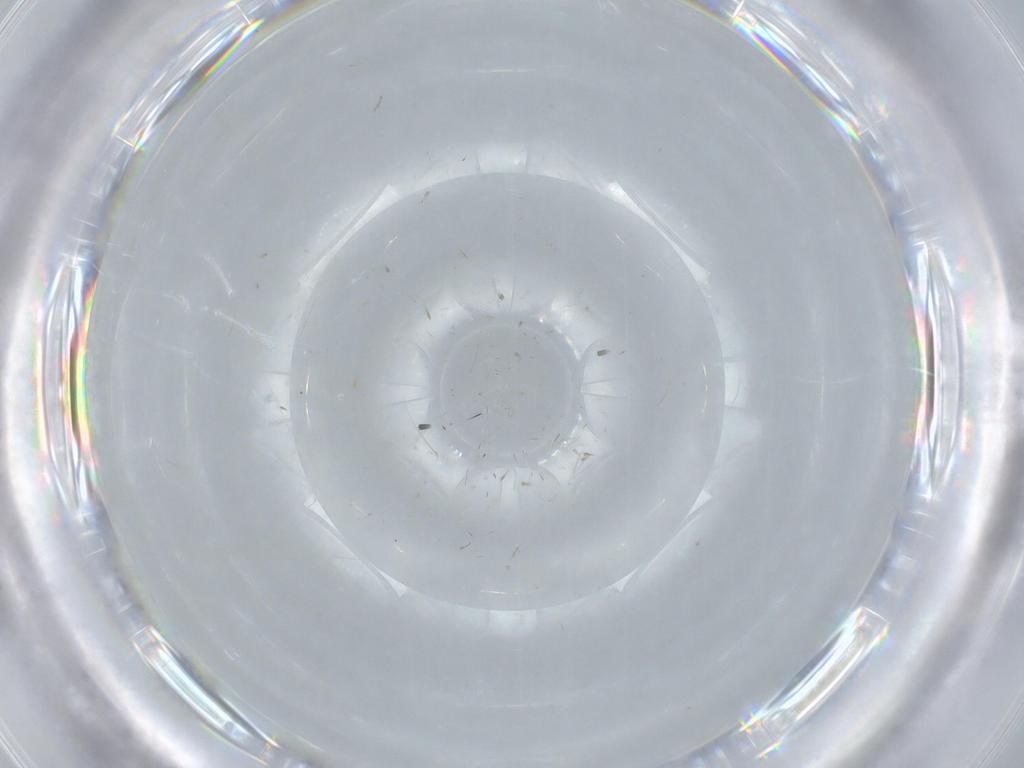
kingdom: Animalia
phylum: Arthropoda
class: Insecta
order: Diptera
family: Cecidomyiidae
